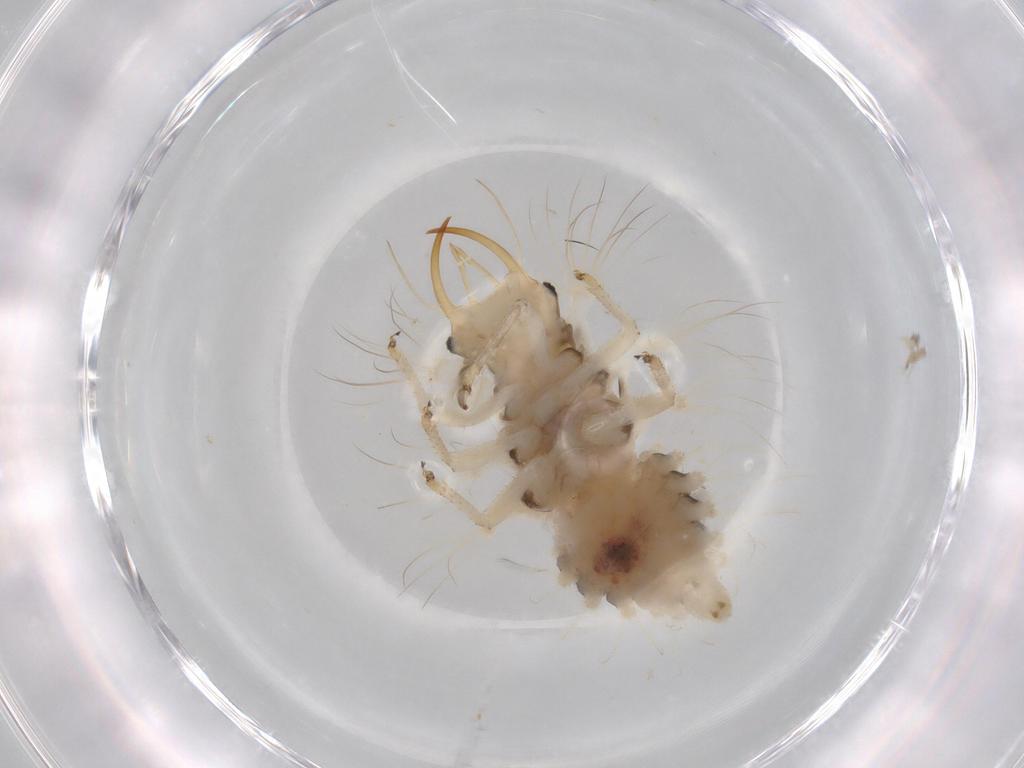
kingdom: Animalia
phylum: Arthropoda
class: Insecta
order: Neuroptera
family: Chrysopidae
